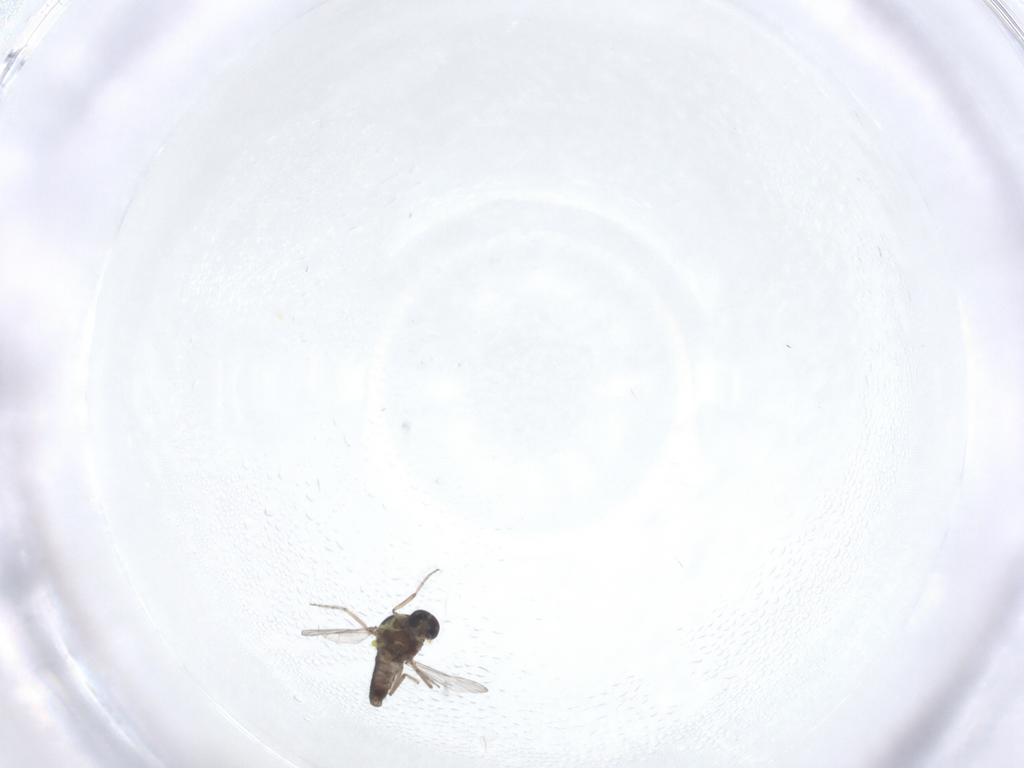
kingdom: Animalia
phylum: Arthropoda
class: Insecta
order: Diptera
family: Ceratopogonidae
